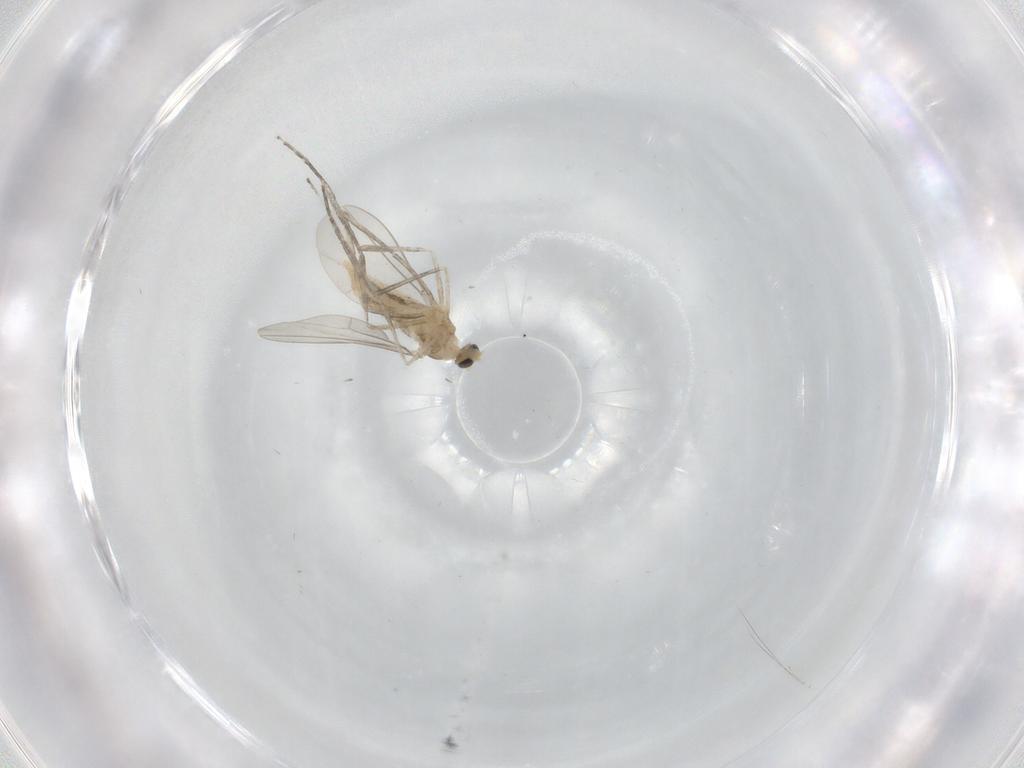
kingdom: Animalia
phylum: Arthropoda
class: Insecta
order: Diptera
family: Cecidomyiidae
